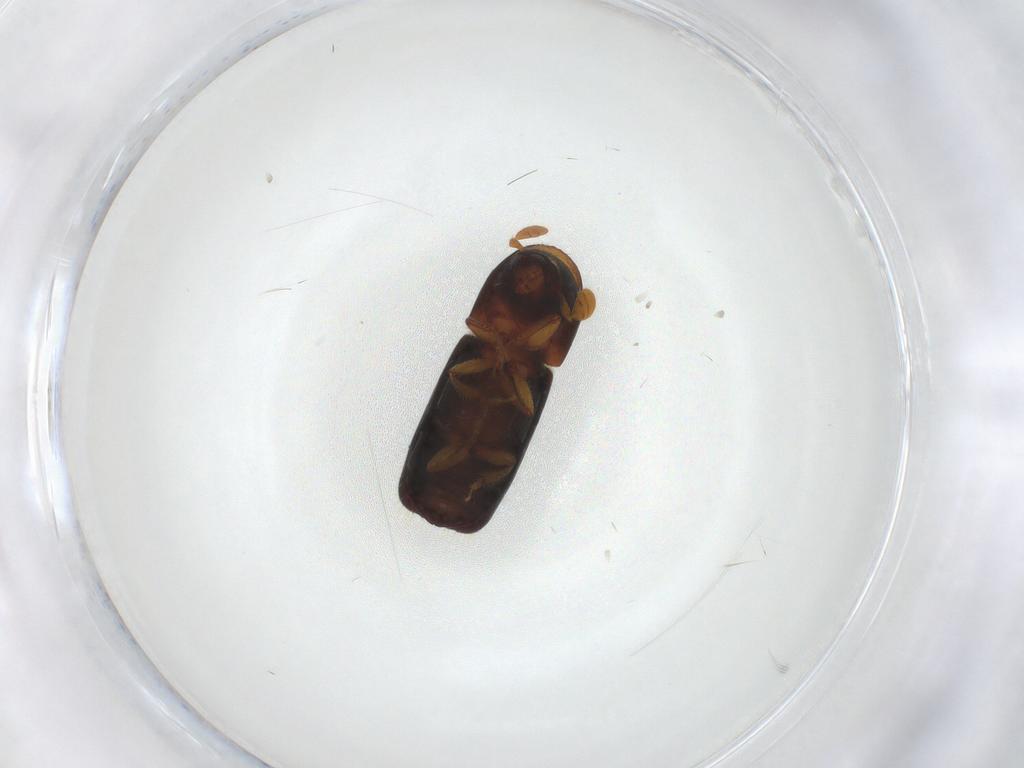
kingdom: Animalia
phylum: Arthropoda
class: Insecta
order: Coleoptera
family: Curculionidae
